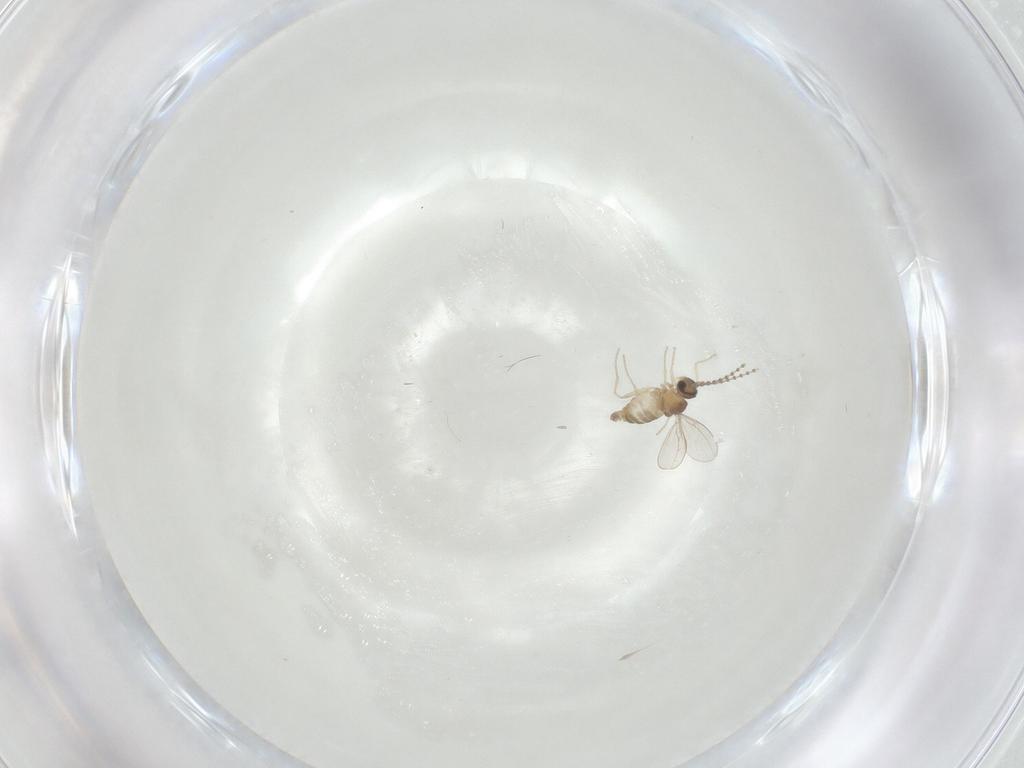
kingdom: Animalia
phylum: Arthropoda
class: Insecta
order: Diptera
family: Cecidomyiidae
